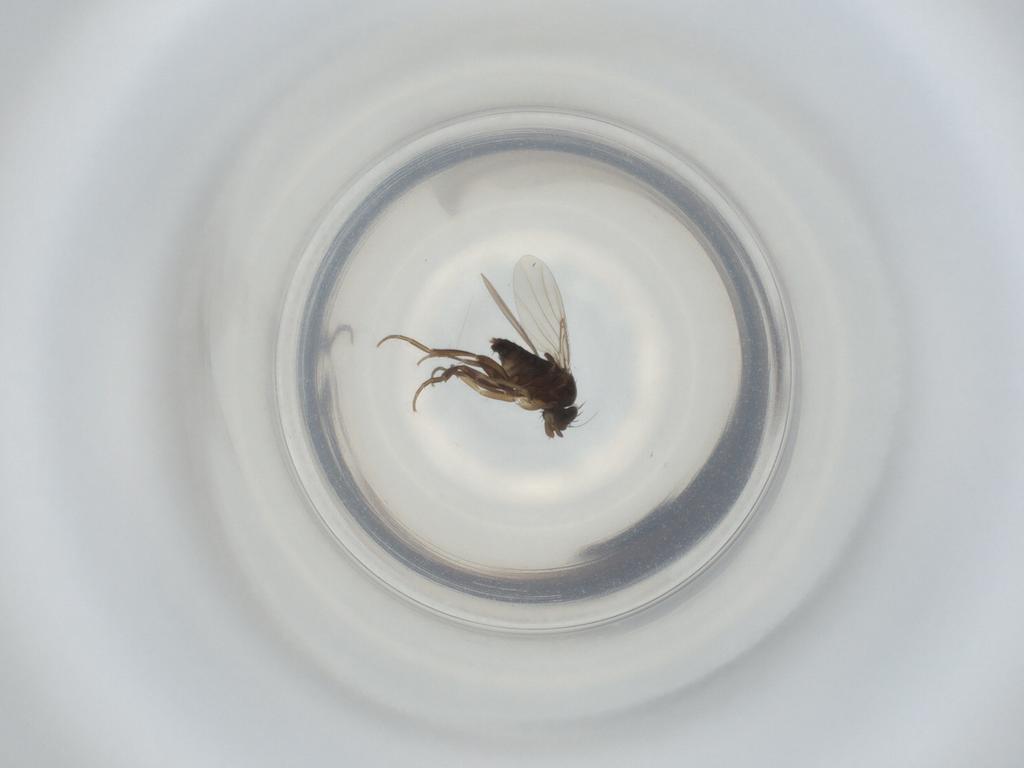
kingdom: Animalia
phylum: Arthropoda
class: Insecta
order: Diptera
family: Phoridae
